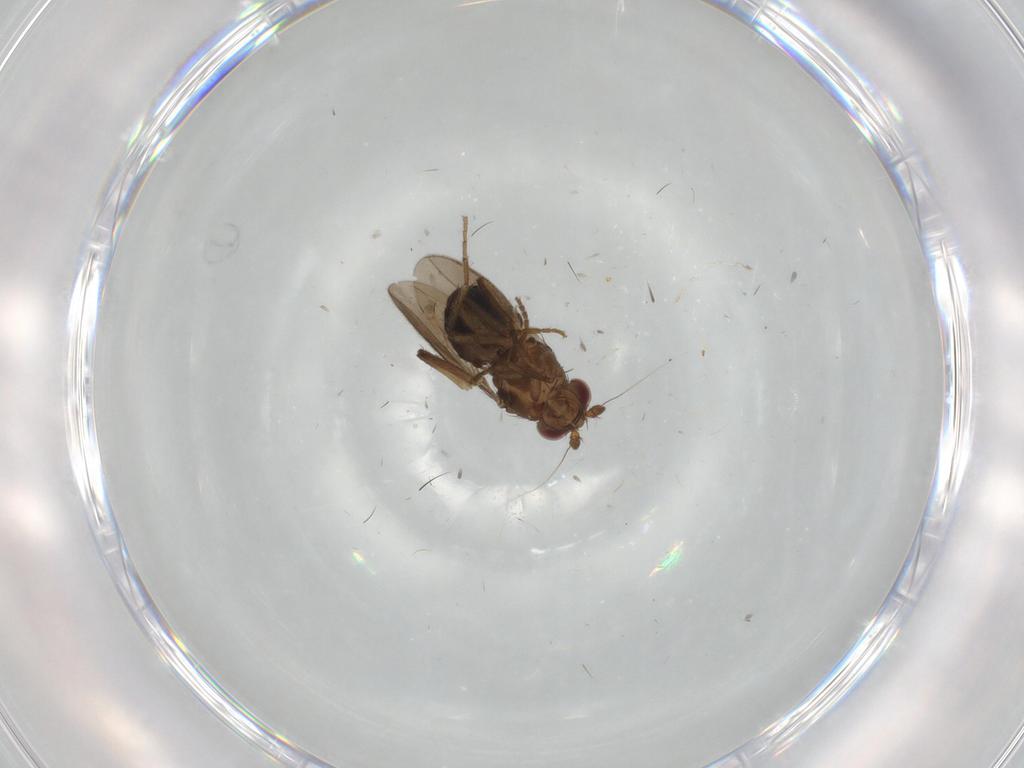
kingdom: Animalia
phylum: Arthropoda
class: Insecta
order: Diptera
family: Sphaeroceridae
